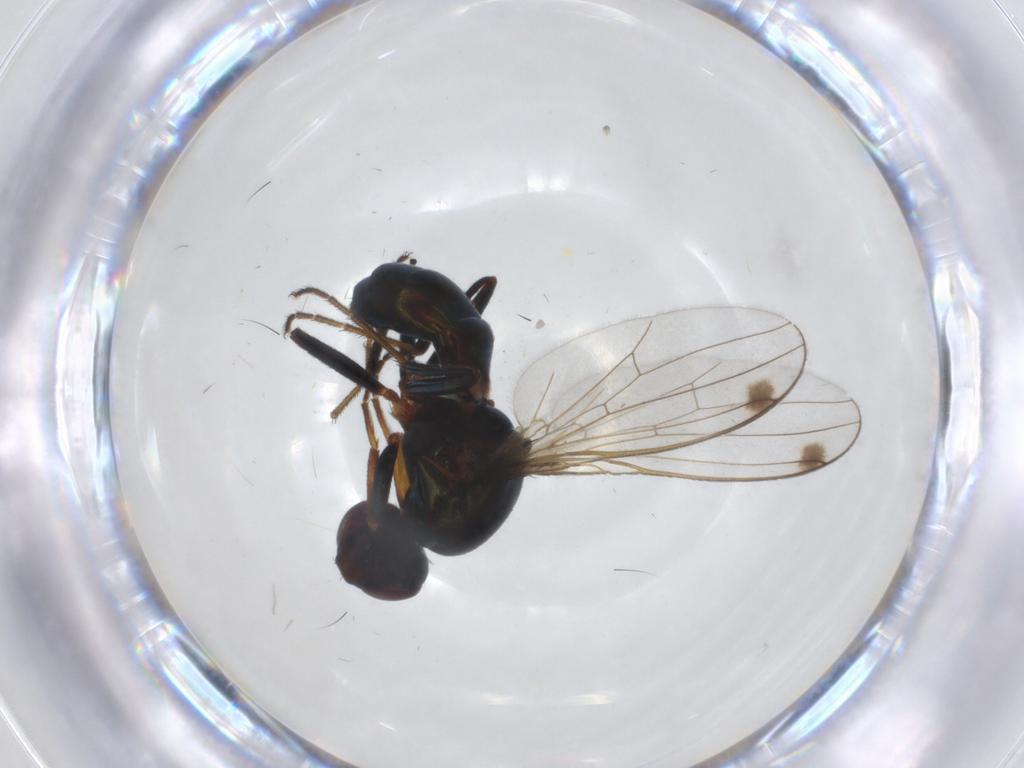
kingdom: Animalia
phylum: Arthropoda
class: Insecta
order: Diptera
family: Sepsidae
